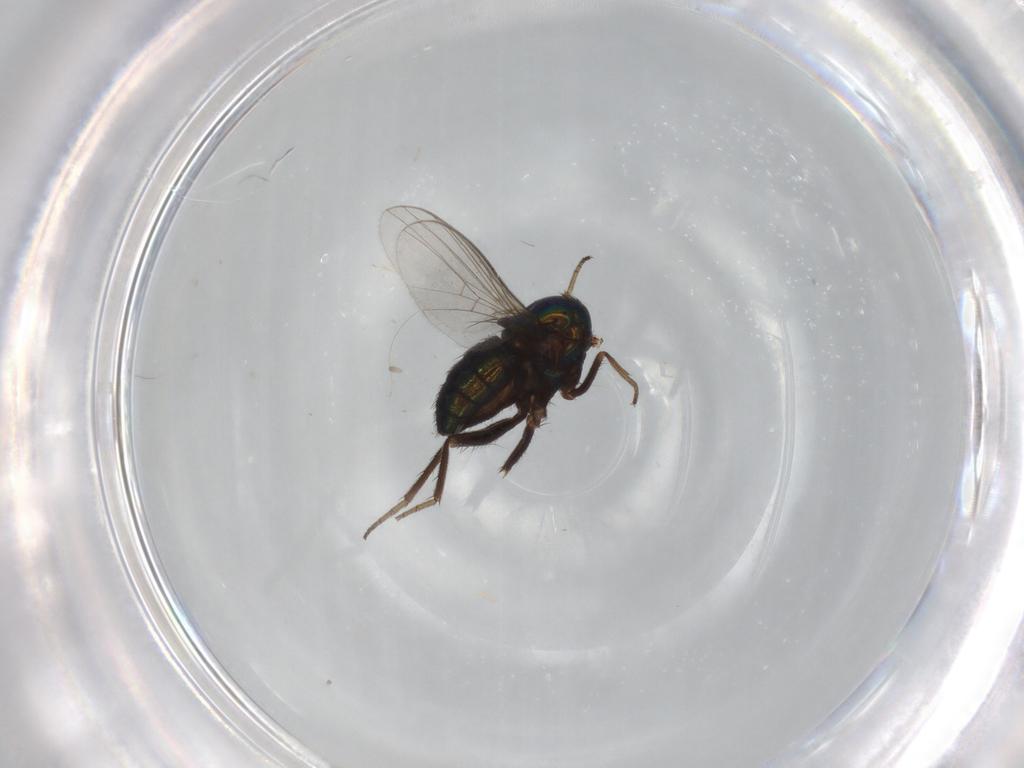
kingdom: Animalia
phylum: Arthropoda
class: Insecta
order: Diptera
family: Dolichopodidae
